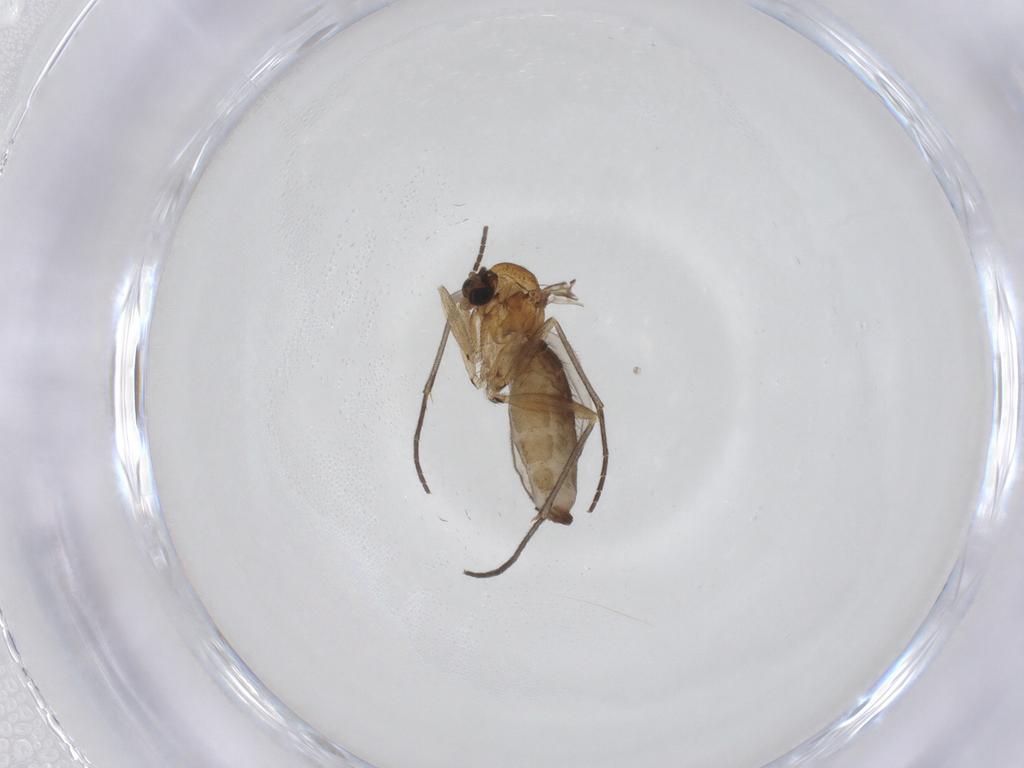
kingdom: Animalia
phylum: Arthropoda
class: Insecta
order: Diptera
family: Sciaridae
